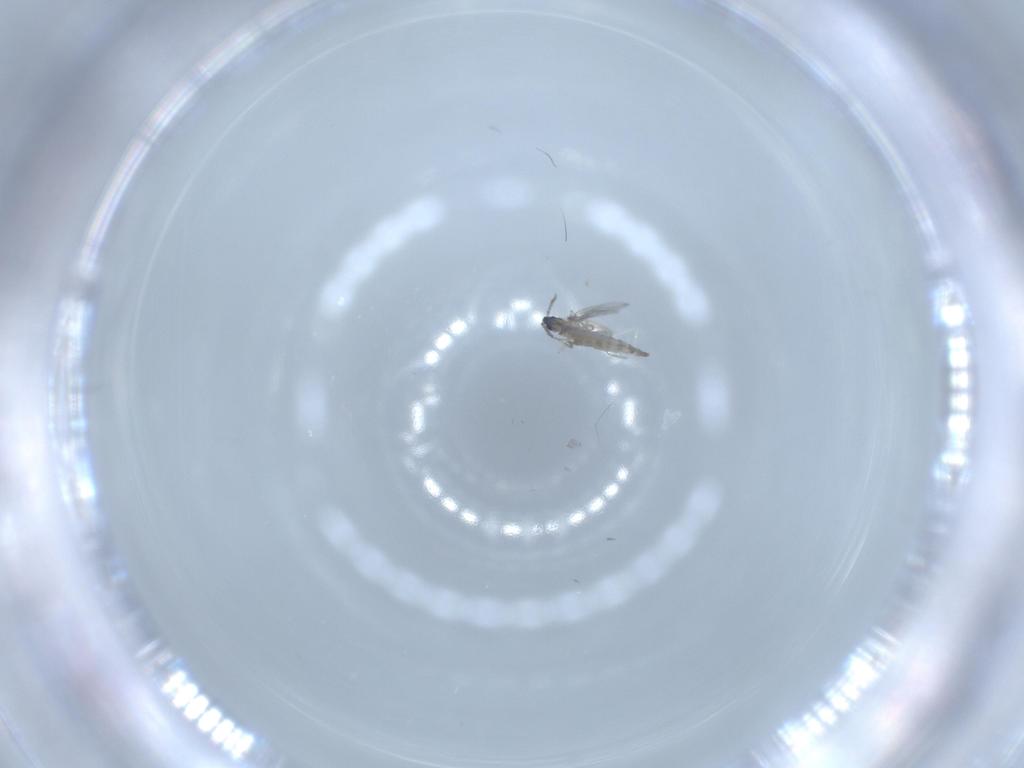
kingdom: Animalia
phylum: Arthropoda
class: Insecta
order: Diptera
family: Cecidomyiidae
